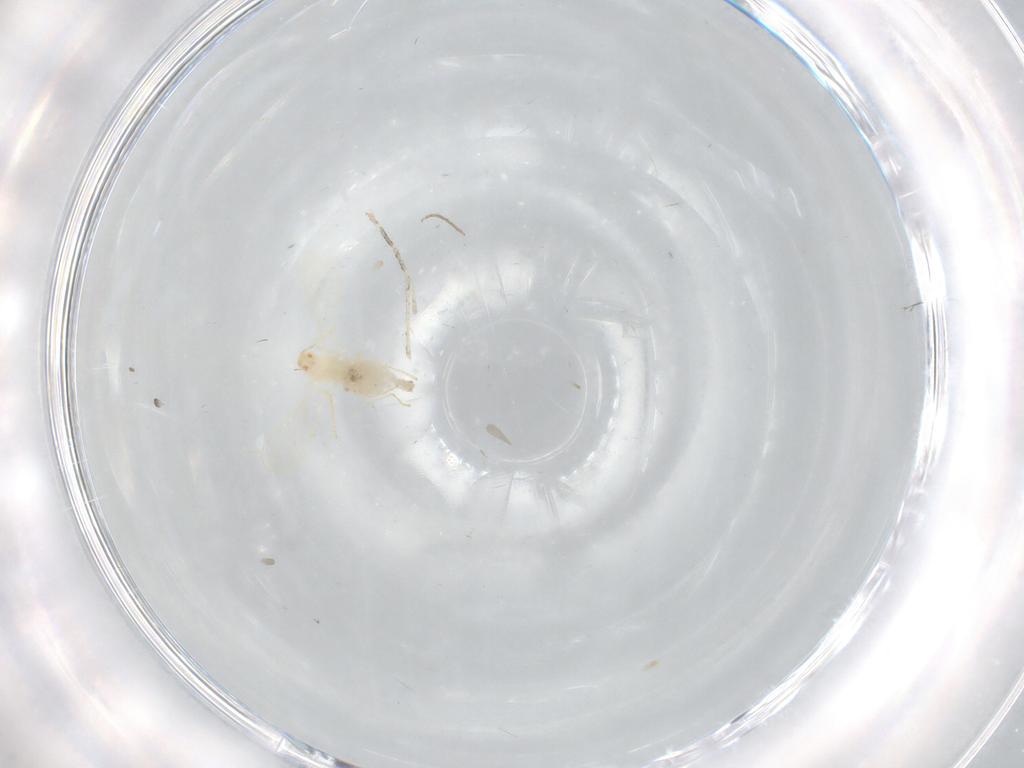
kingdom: Animalia
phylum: Arthropoda
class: Insecta
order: Diptera
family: Cecidomyiidae
